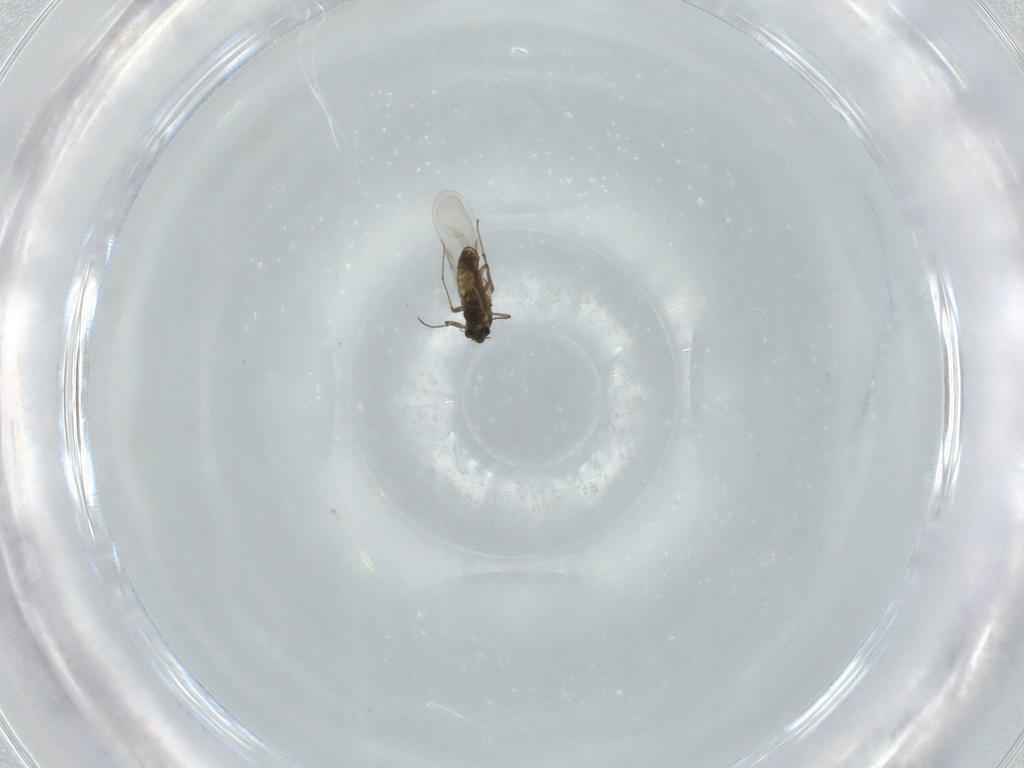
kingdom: Animalia
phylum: Arthropoda
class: Insecta
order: Diptera
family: Chironomidae
